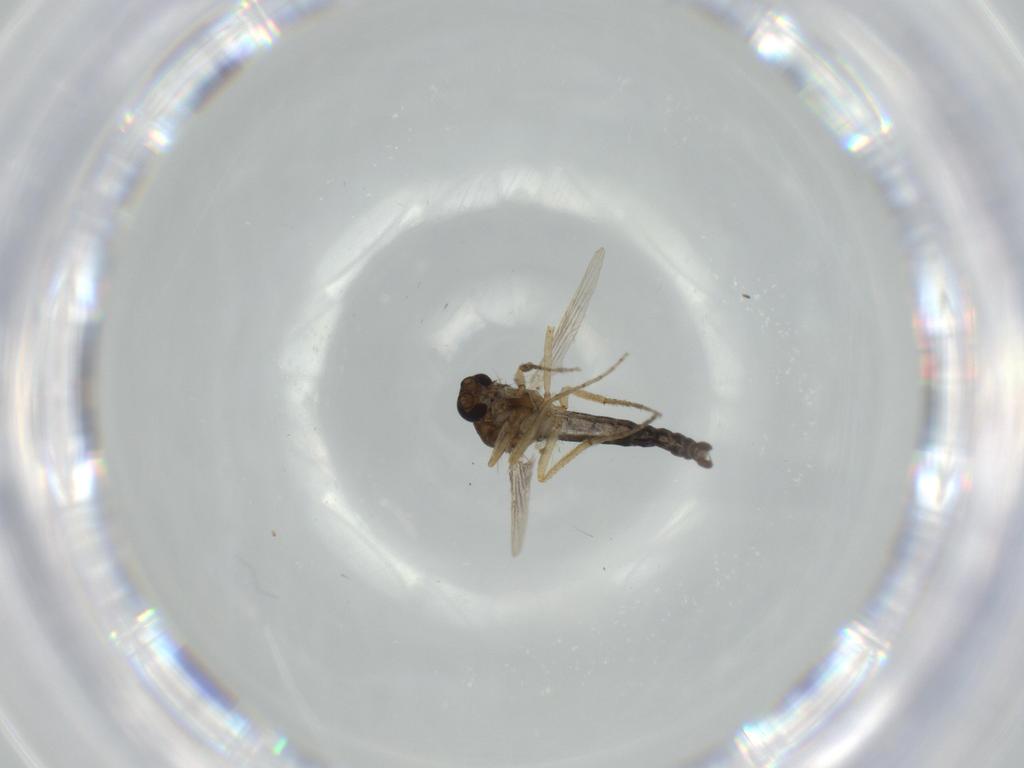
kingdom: Animalia
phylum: Arthropoda
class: Insecta
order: Diptera
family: Ceratopogonidae
